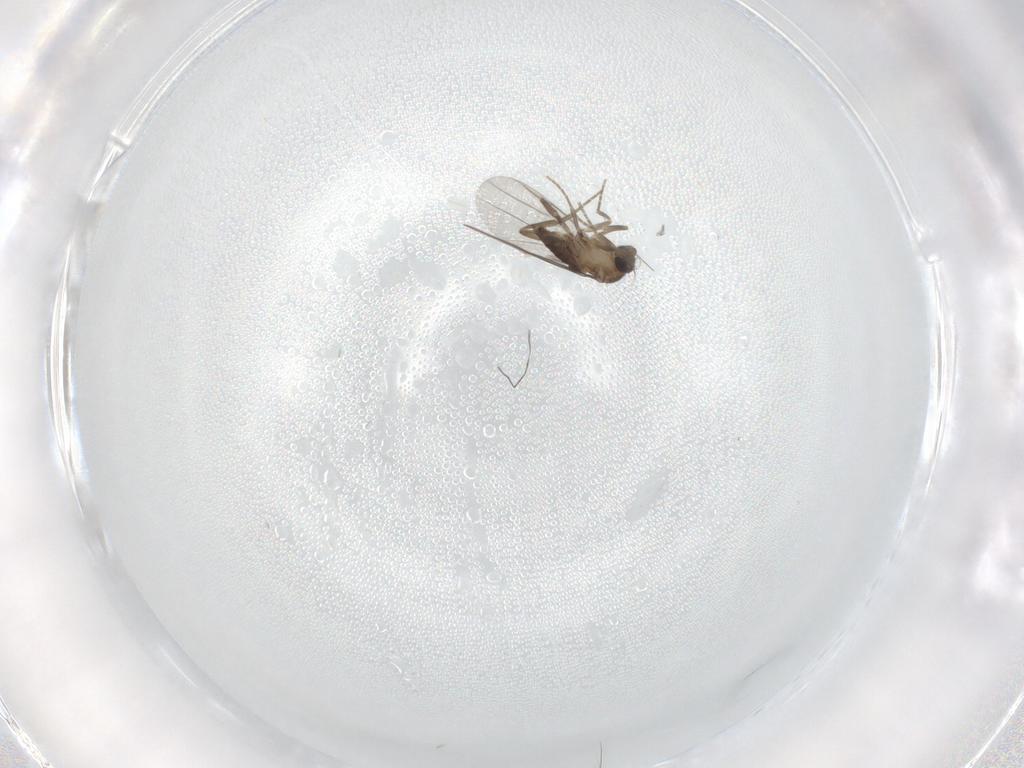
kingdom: Animalia
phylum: Arthropoda
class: Insecta
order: Diptera
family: Phoridae
